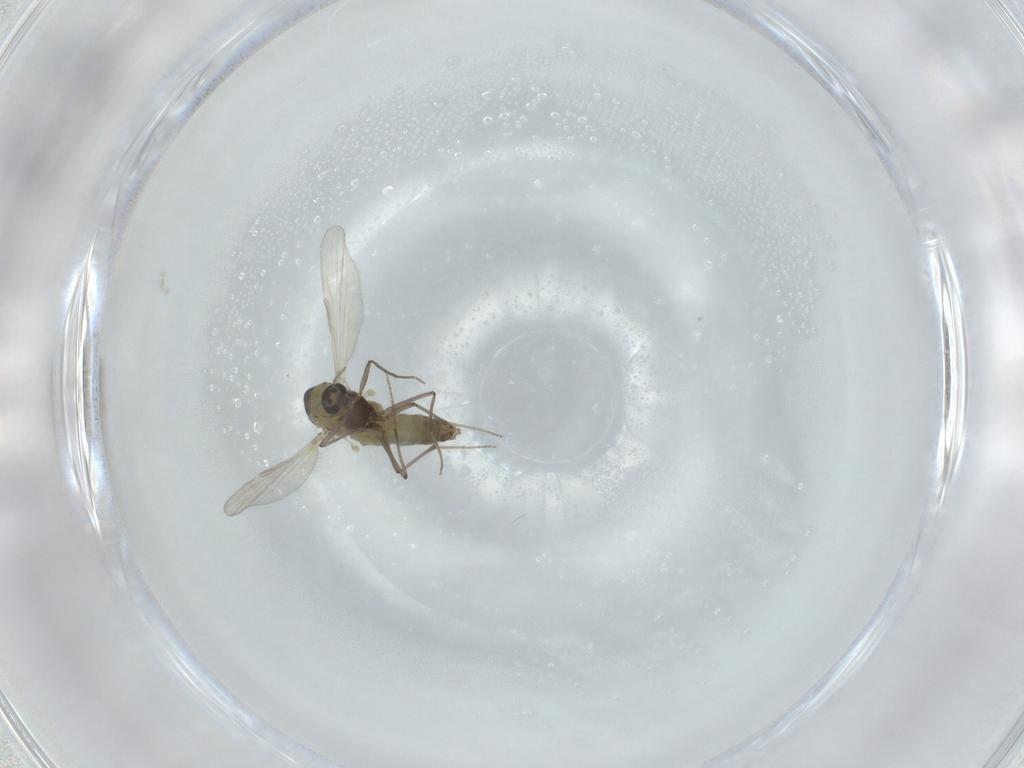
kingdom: Animalia
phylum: Arthropoda
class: Insecta
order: Diptera
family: Chironomidae
